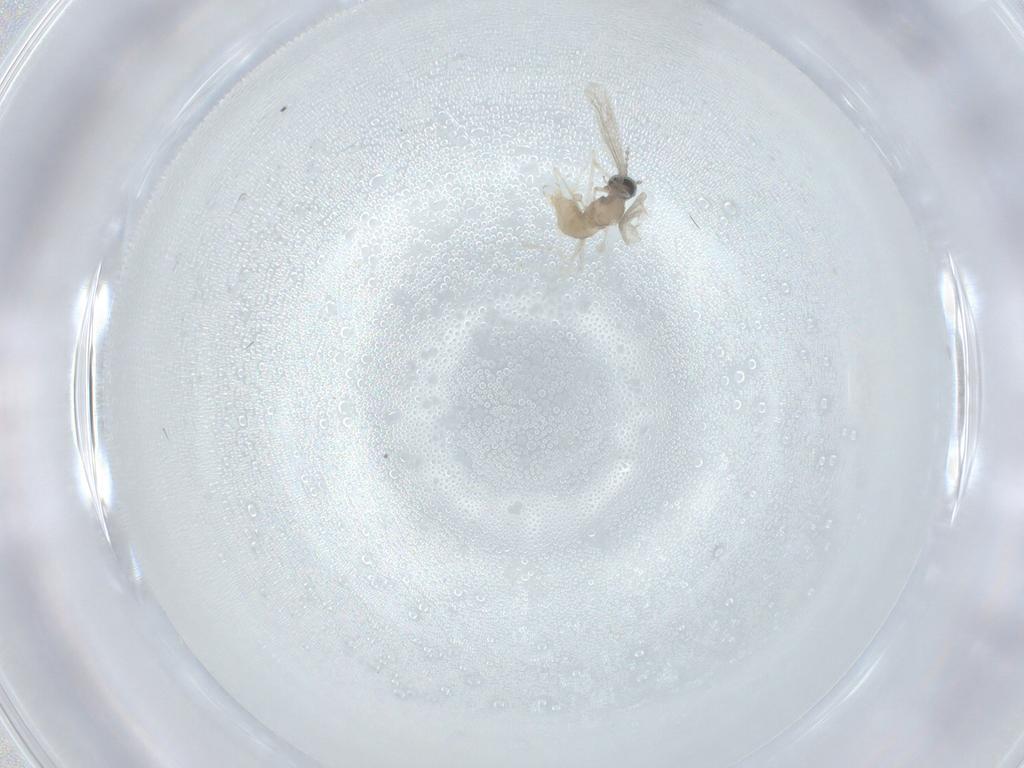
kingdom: Animalia
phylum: Arthropoda
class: Insecta
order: Diptera
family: Cecidomyiidae
